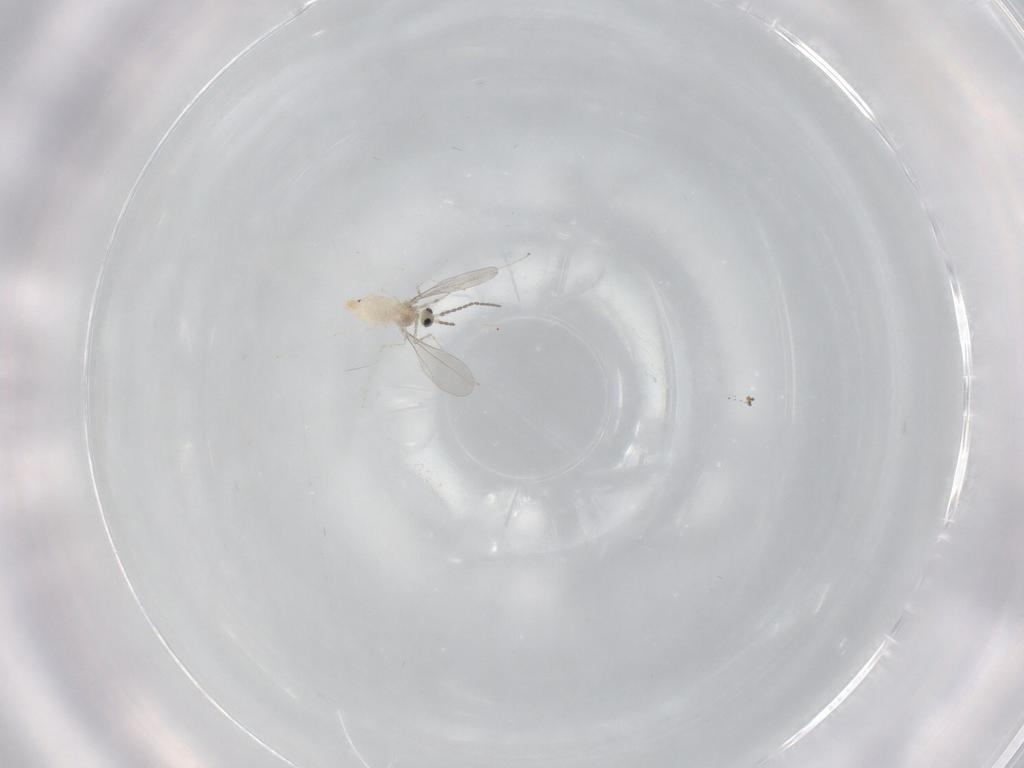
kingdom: Animalia
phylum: Arthropoda
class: Insecta
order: Diptera
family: Cecidomyiidae
